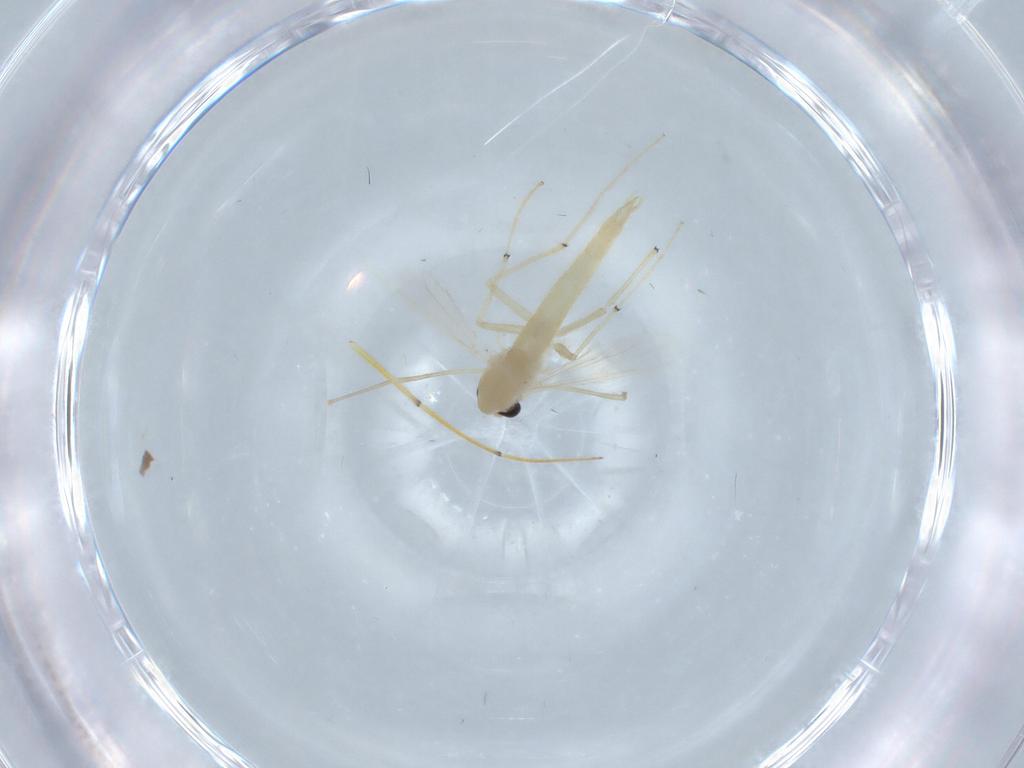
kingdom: Animalia
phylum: Arthropoda
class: Insecta
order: Diptera
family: Chironomidae
